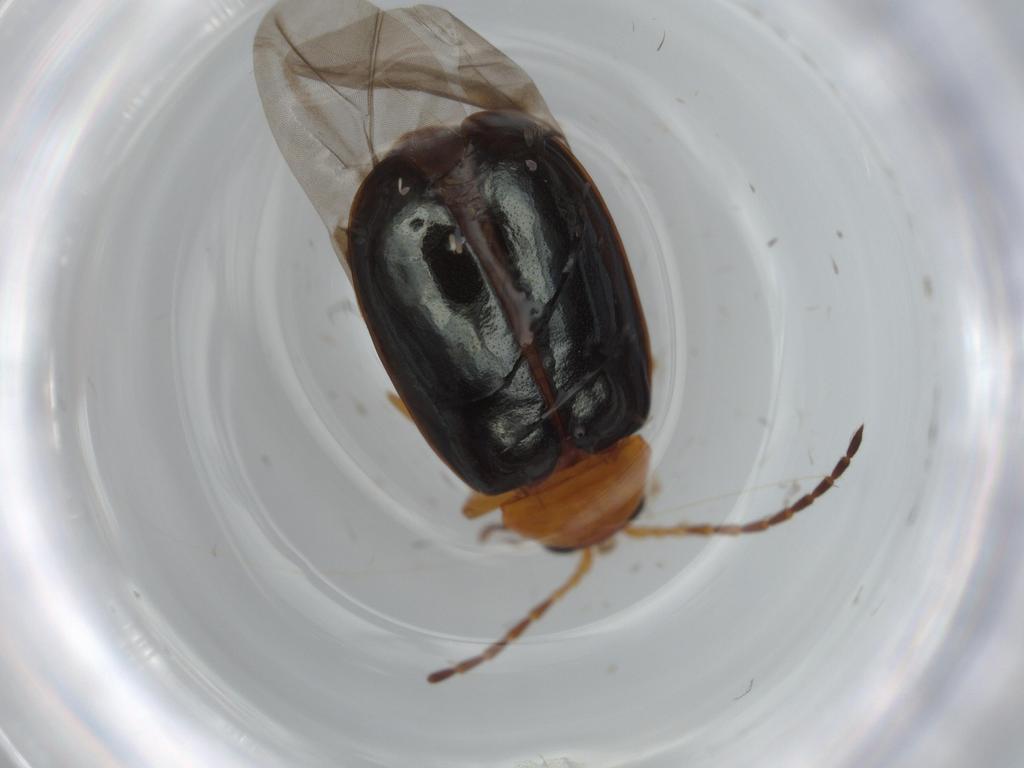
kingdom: Animalia
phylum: Arthropoda
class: Insecta
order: Coleoptera
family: Chrysomelidae
